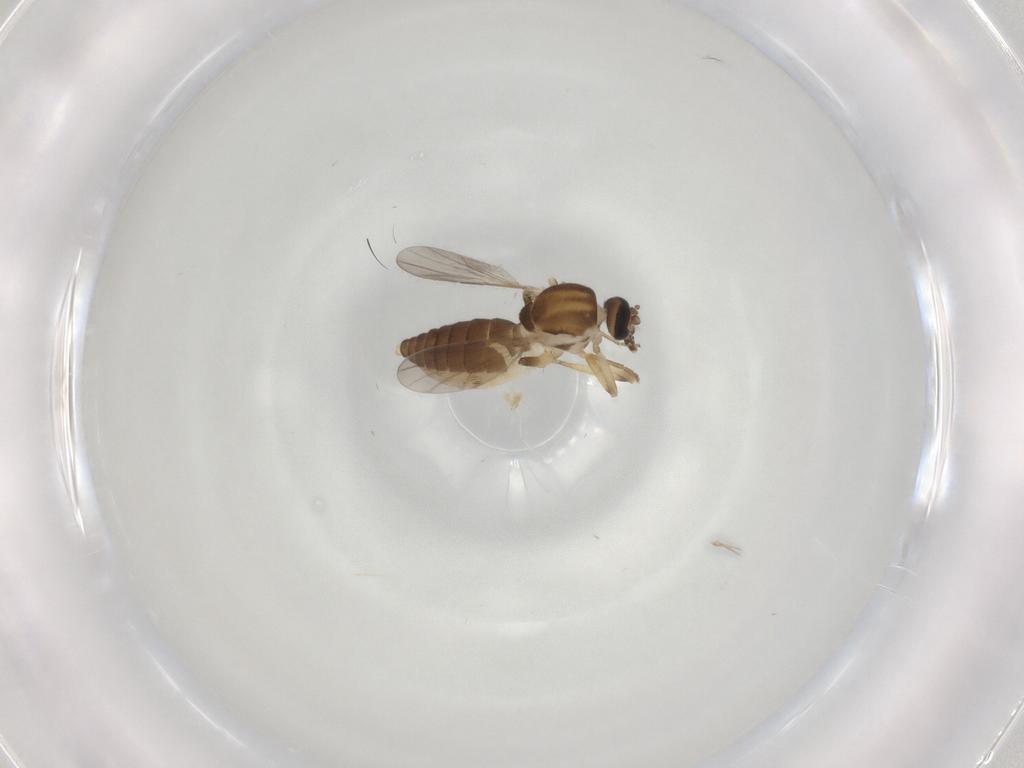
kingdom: Animalia
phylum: Arthropoda
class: Insecta
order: Diptera
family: Ceratopogonidae
